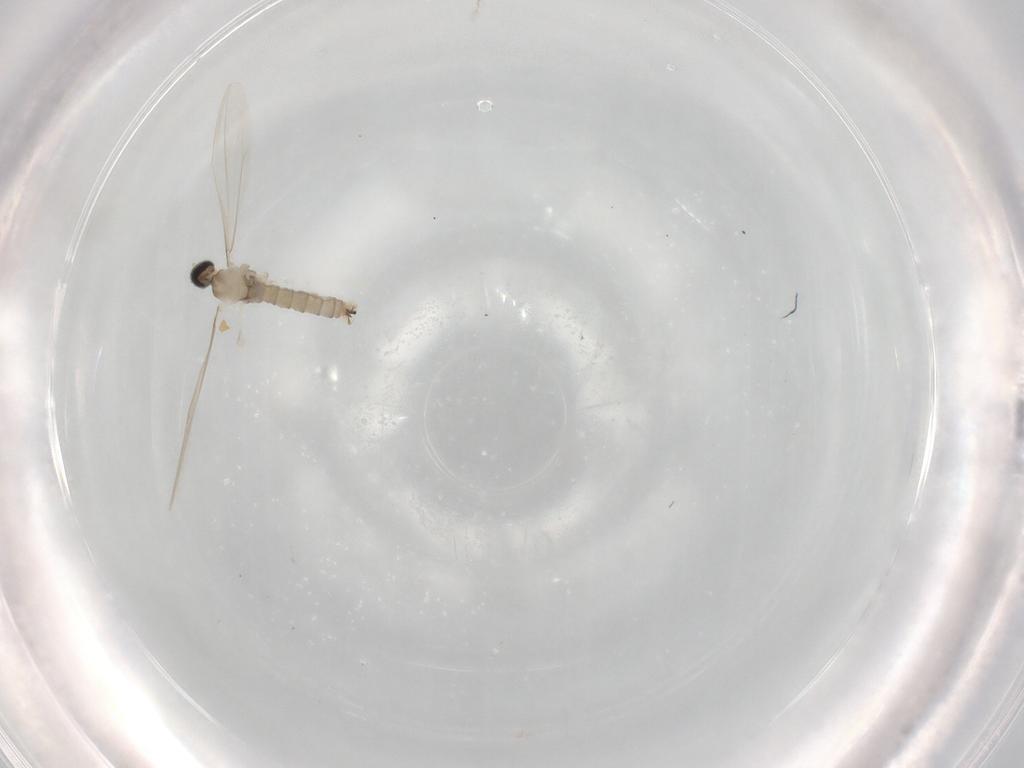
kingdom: Animalia
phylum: Arthropoda
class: Insecta
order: Diptera
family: Cecidomyiidae
